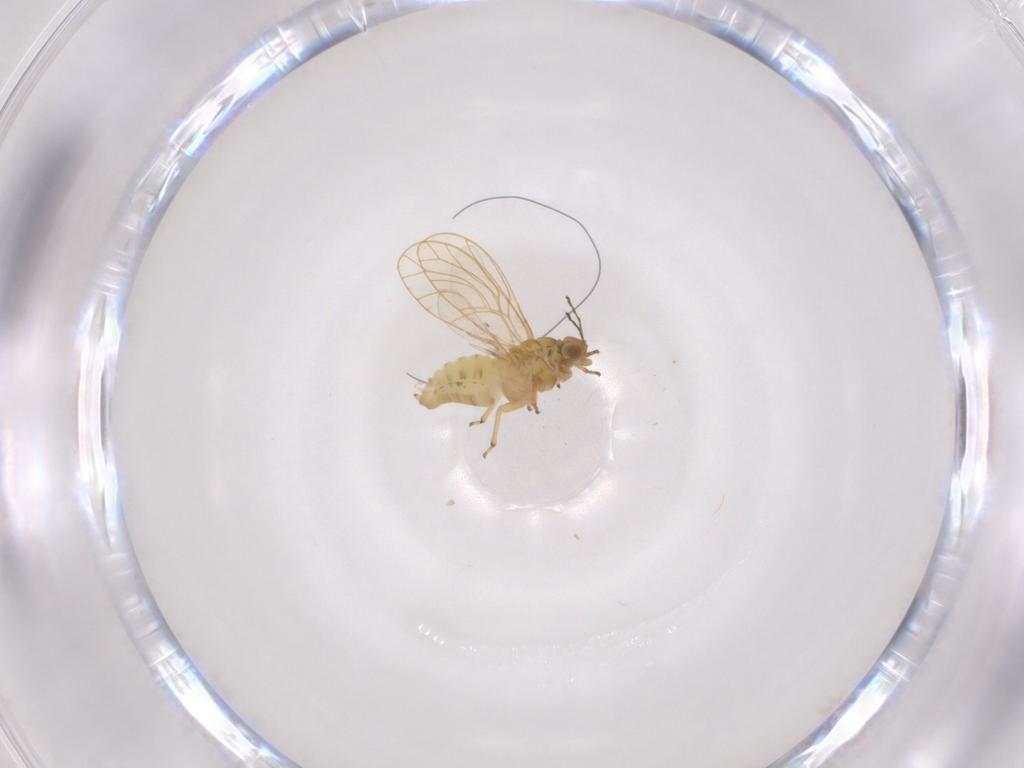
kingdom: Animalia
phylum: Arthropoda
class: Insecta
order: Hemiptera
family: Psylloidea_incertae_sedis
